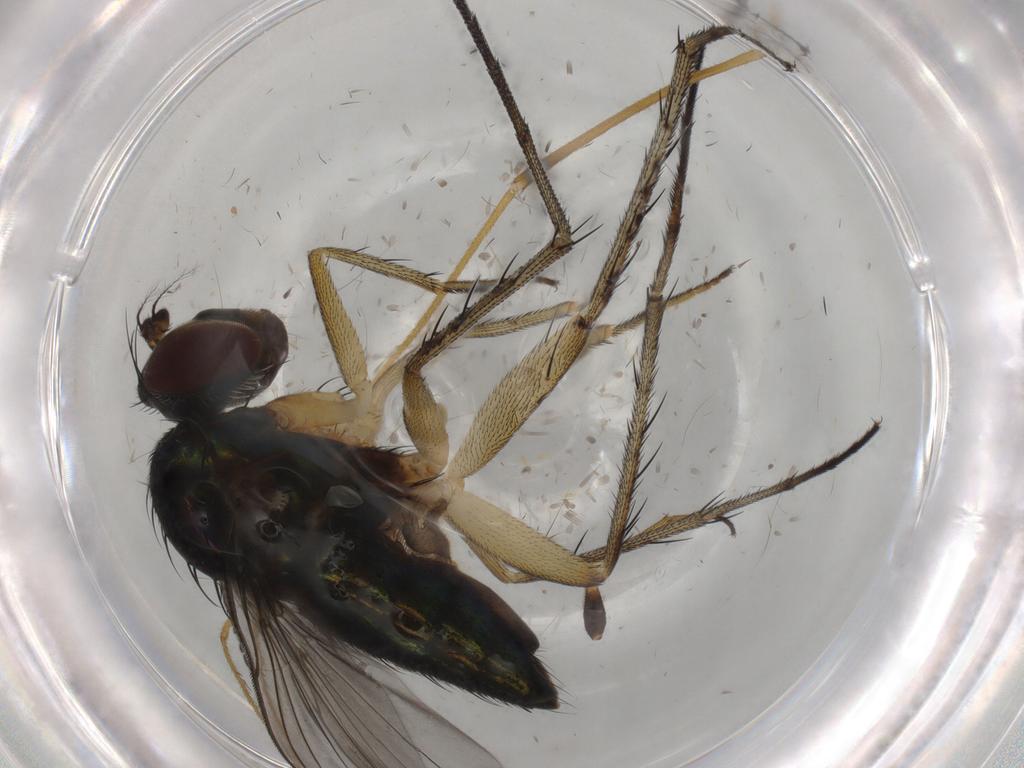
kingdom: Animalia
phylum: Arthropoda
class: Insecta
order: Diptera
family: Dolichopodidae
